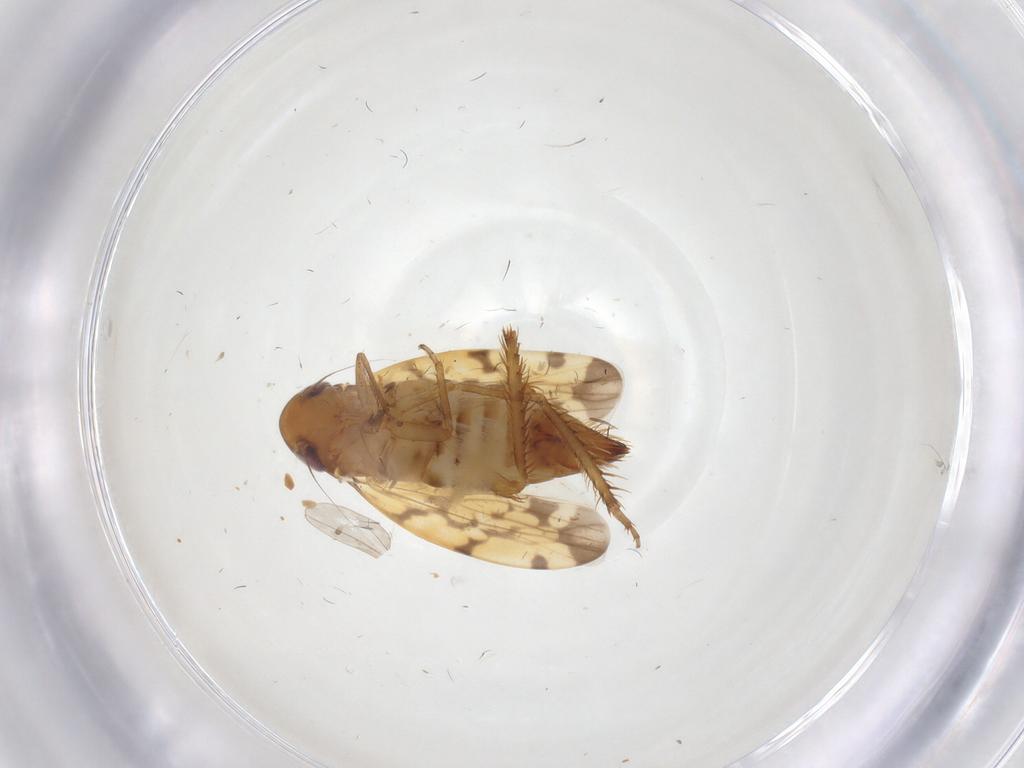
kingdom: Animalia
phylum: Arthropoda
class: Insecta
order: Hemiptera
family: Cicadellidae
